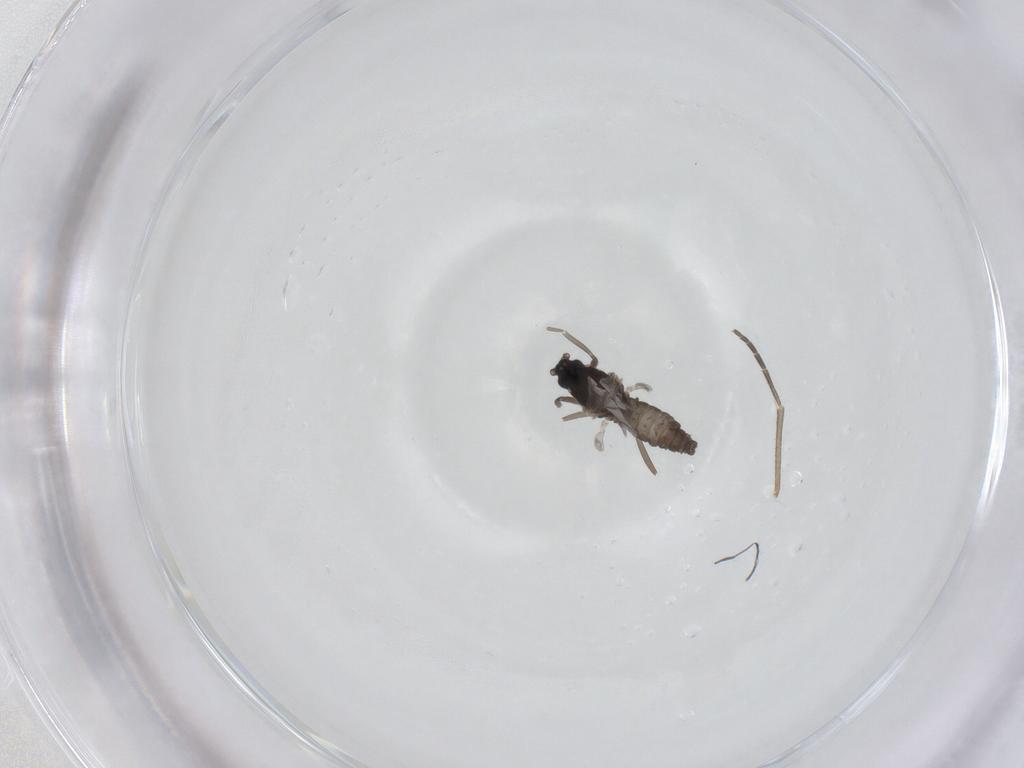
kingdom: Animalia
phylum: Arthropoda
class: Insecta
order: Diptera
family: Cecidomyiidae
